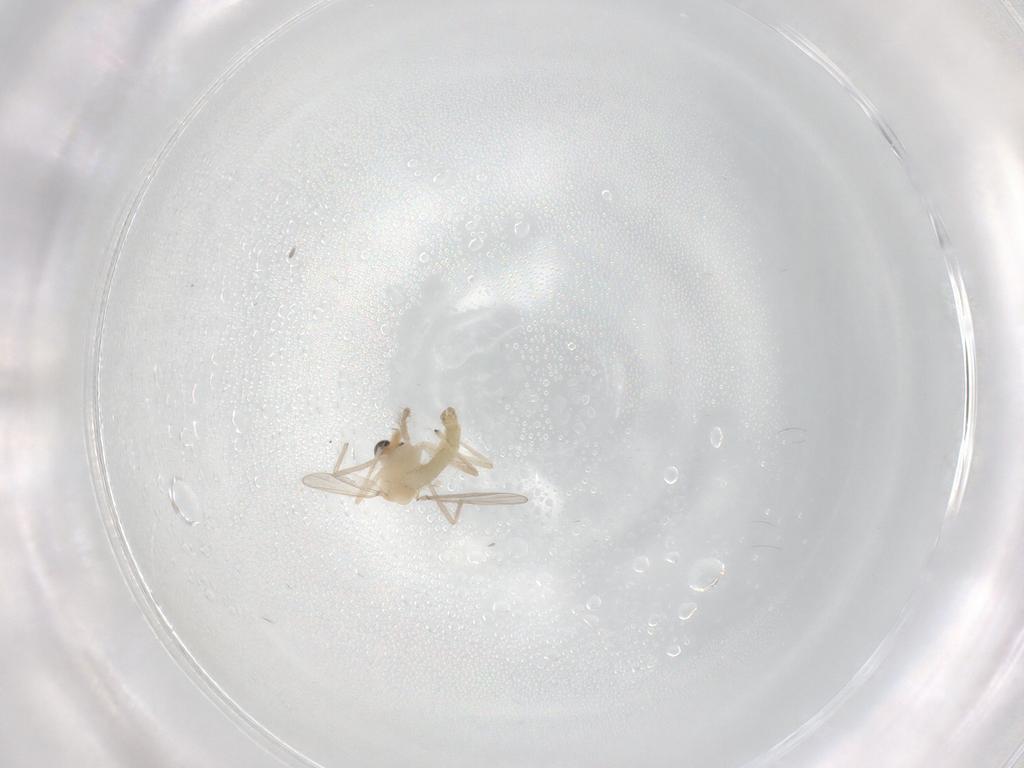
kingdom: Animalia
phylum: Arthropoda
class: Insecta
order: Diptera
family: Chironomidae
